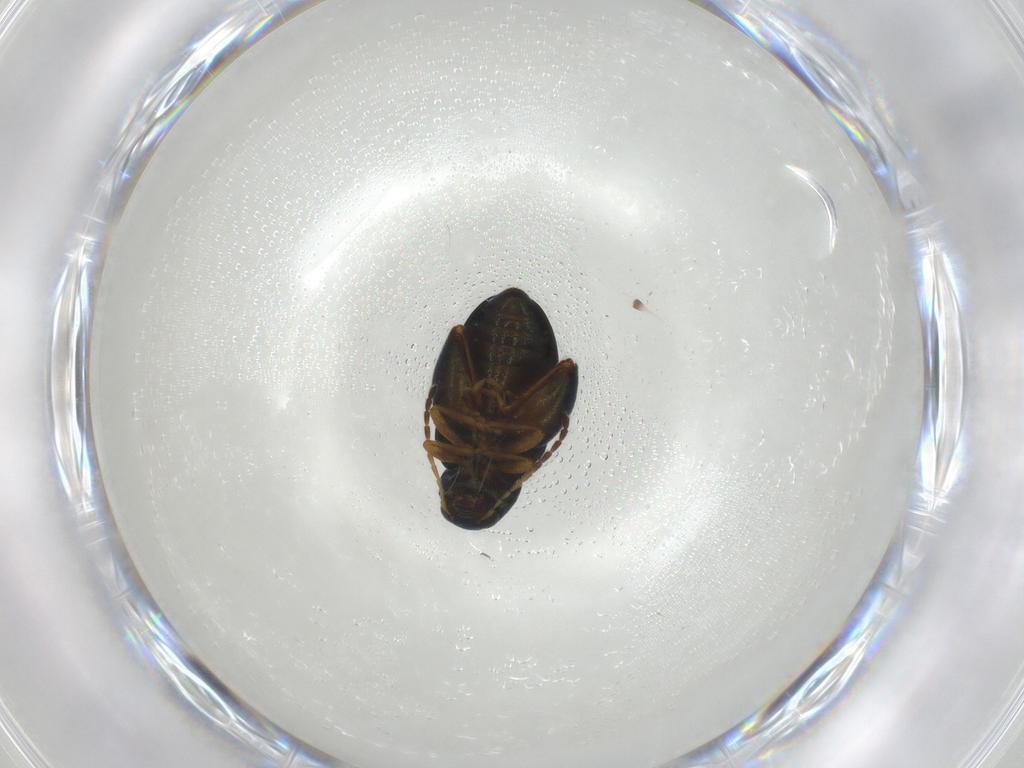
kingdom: Animalia
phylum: Arthropoda
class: Insecta
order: Coleoptera
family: Chrysomelidae
